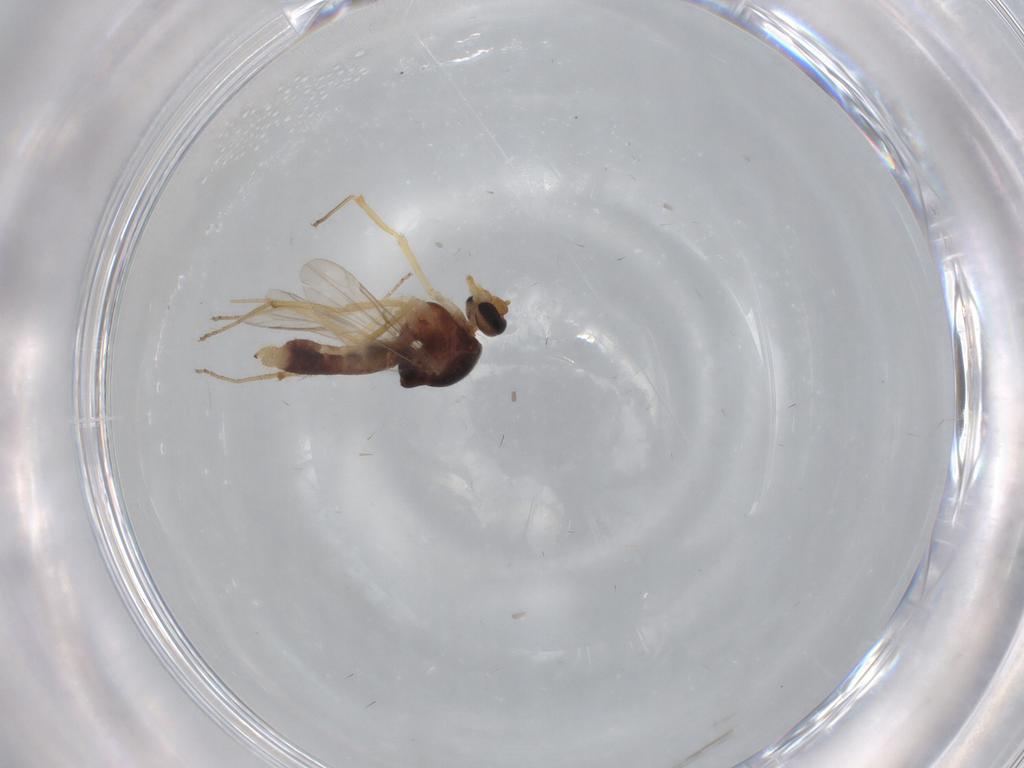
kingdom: Animalia
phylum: Arthropoda
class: Insecta
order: Diptera
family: Ceratopogonidae
